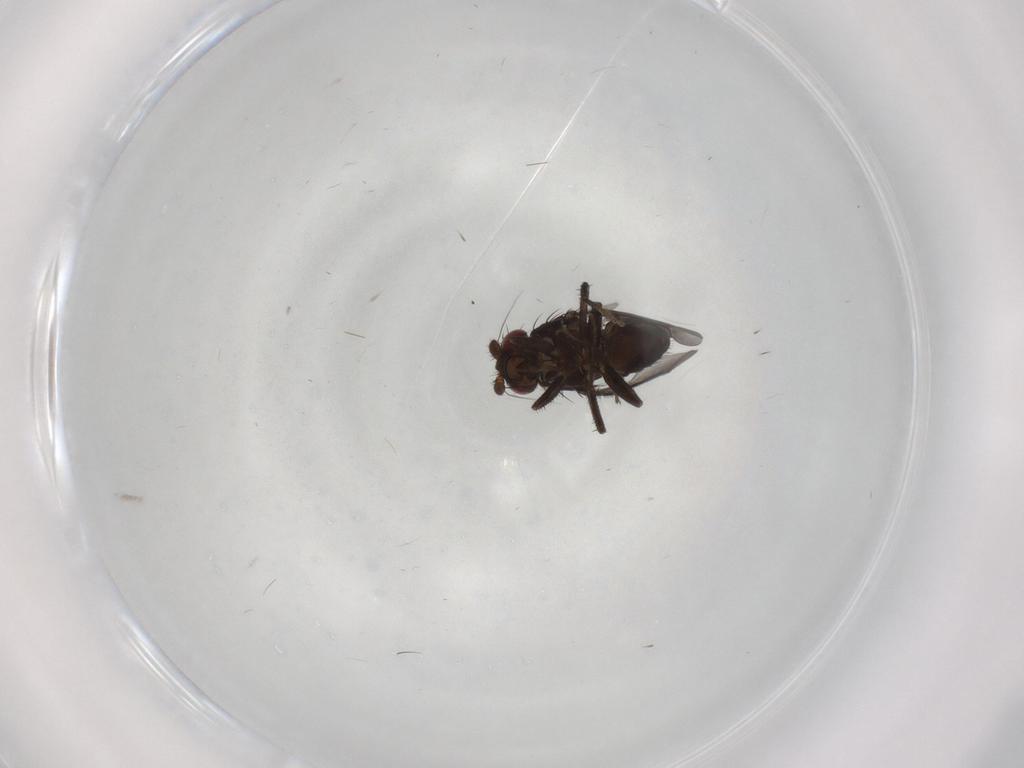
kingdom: Animalia
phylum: Arthropoda
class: Insecta
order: Diptera
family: Sphaeroceridae
